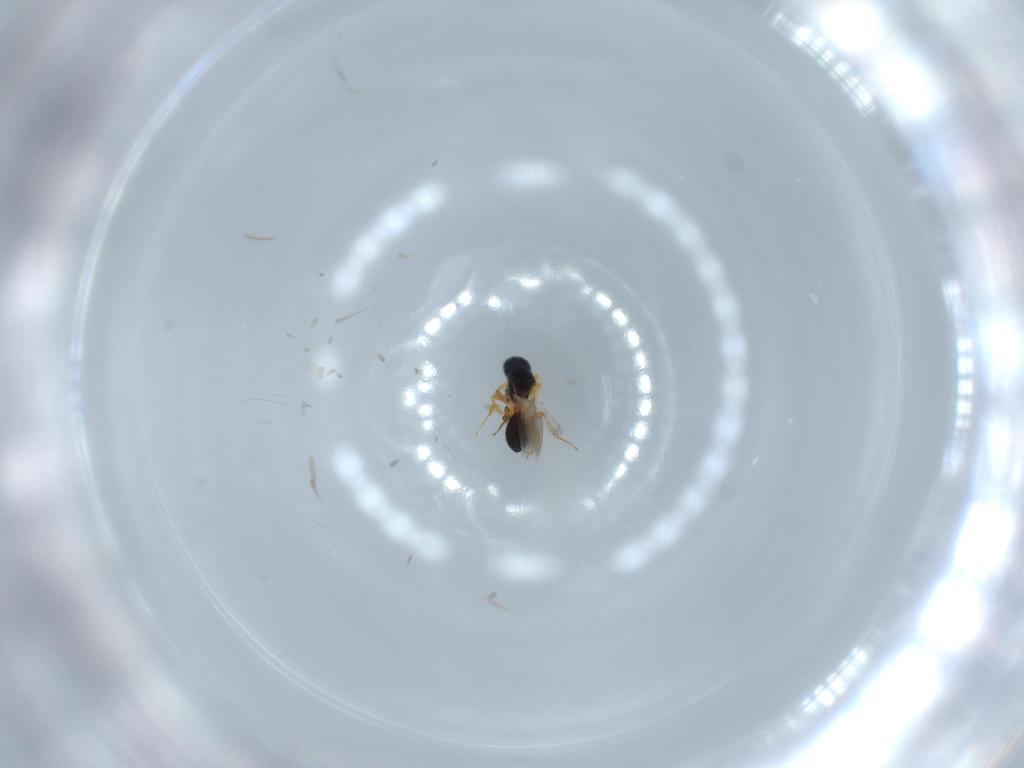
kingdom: Animalia
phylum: Arthropoda
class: Insecta
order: Hymenoptera
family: Platygastridae
